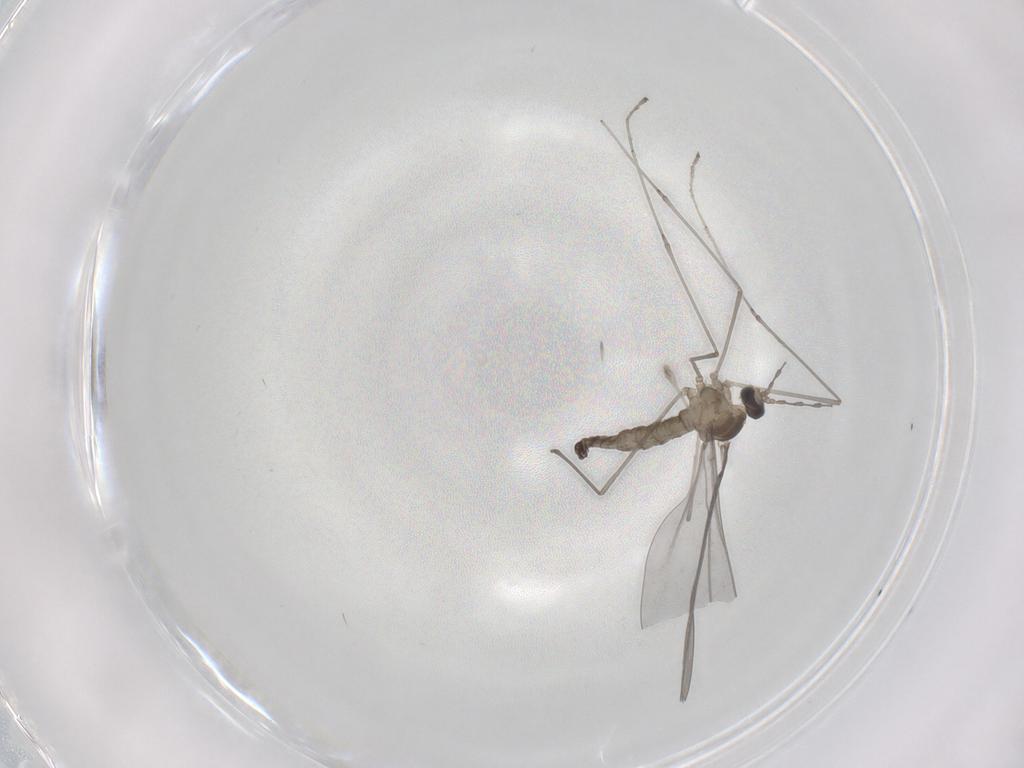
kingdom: Animalia
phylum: Arthropoda
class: Insecta
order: Diptera
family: Cecidomyiidae
